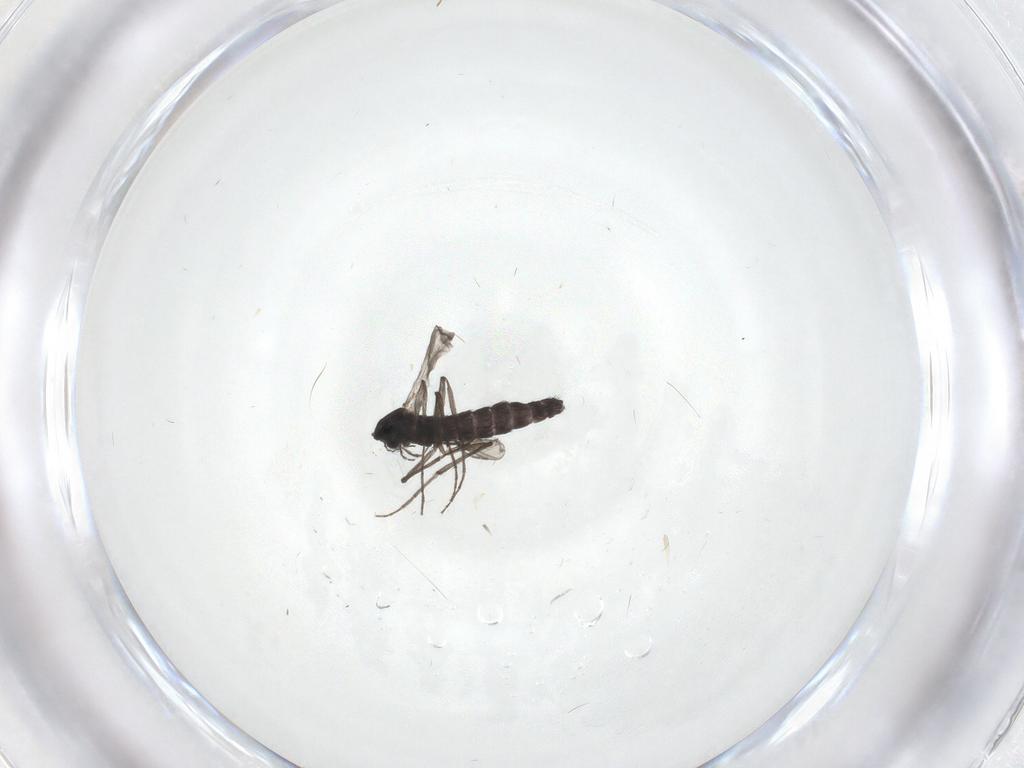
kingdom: Animalia
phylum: Arthropoda
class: Insecta
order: Diptera
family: Chironomidae
